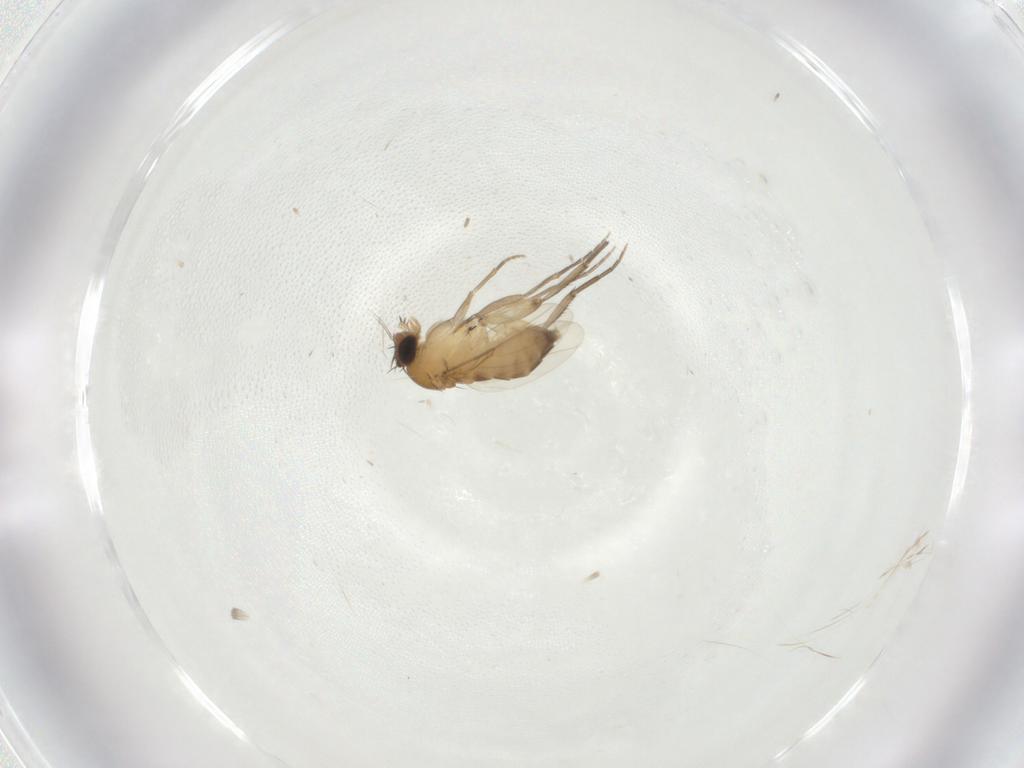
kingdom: Animalia
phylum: Arthropoda
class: Insecta
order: Diptera
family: Phoridae
